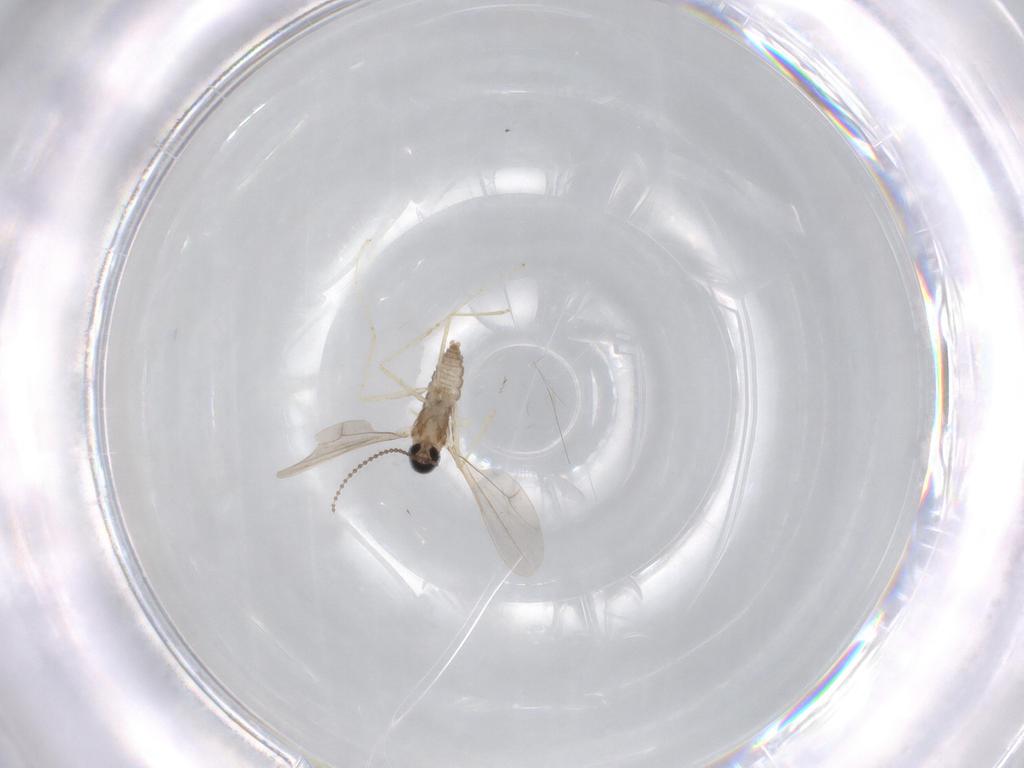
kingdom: Animalia
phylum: Arthropoda
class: Insecta
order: Diptera
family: Cecidomyiidae
